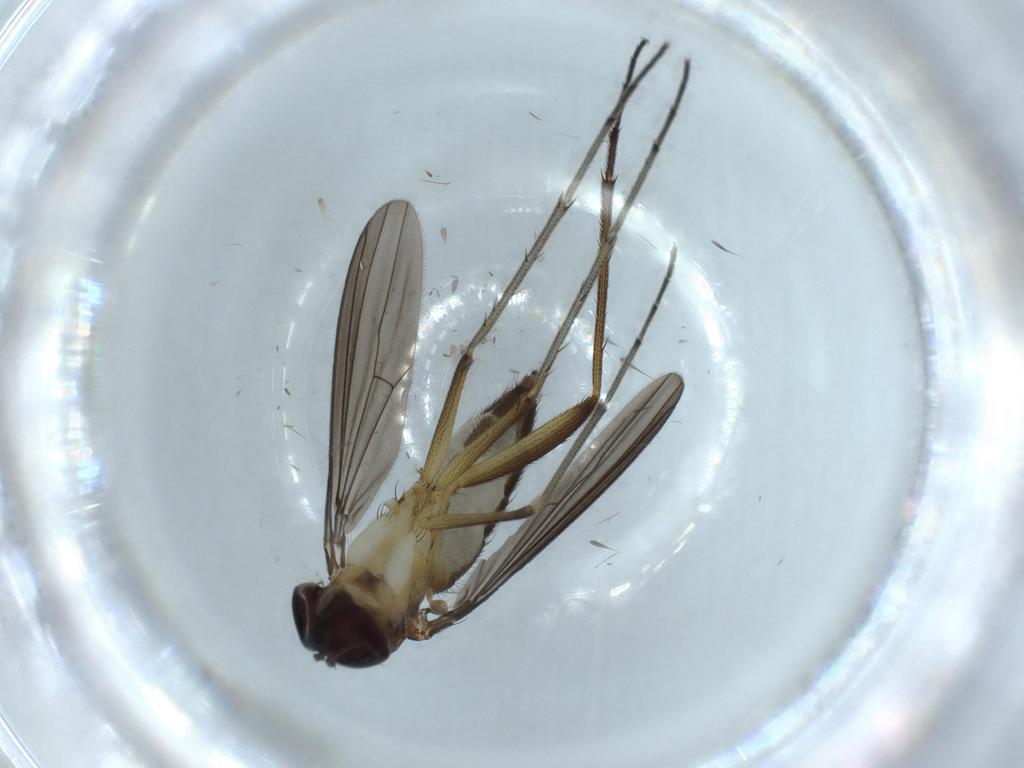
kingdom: Animalia
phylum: Arthropoda
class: Insecta
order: Diptera
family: Dolichopodidae
